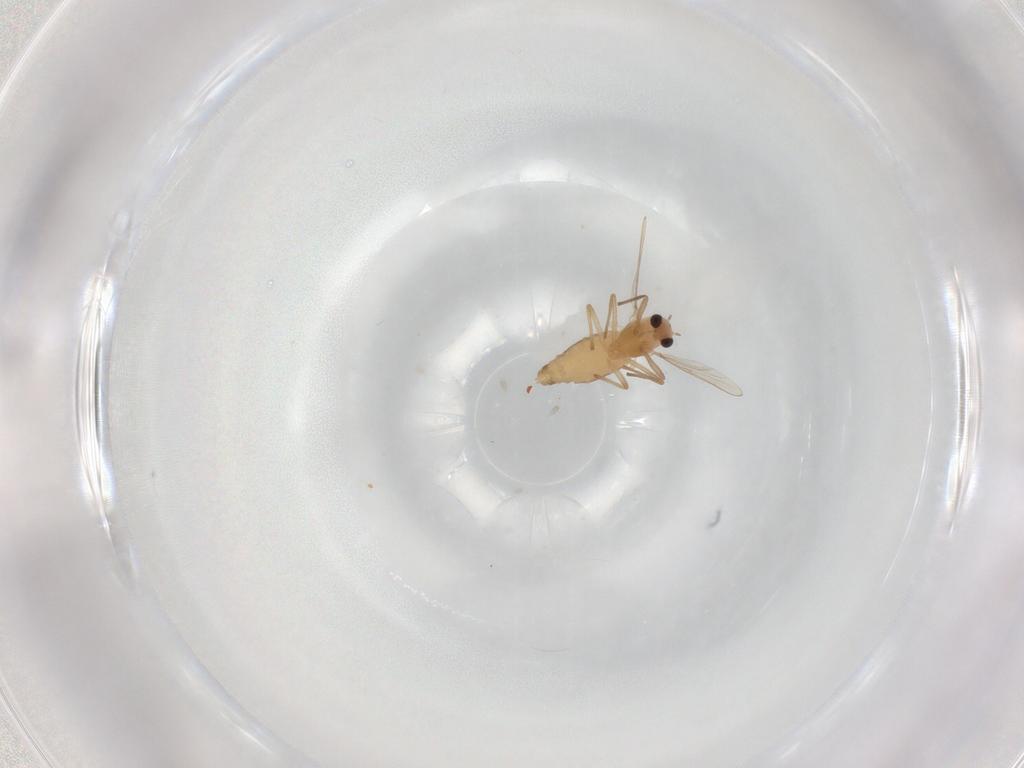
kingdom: Animalia
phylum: Arthropoda
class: Insecta
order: Diptera
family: Chironomidae
